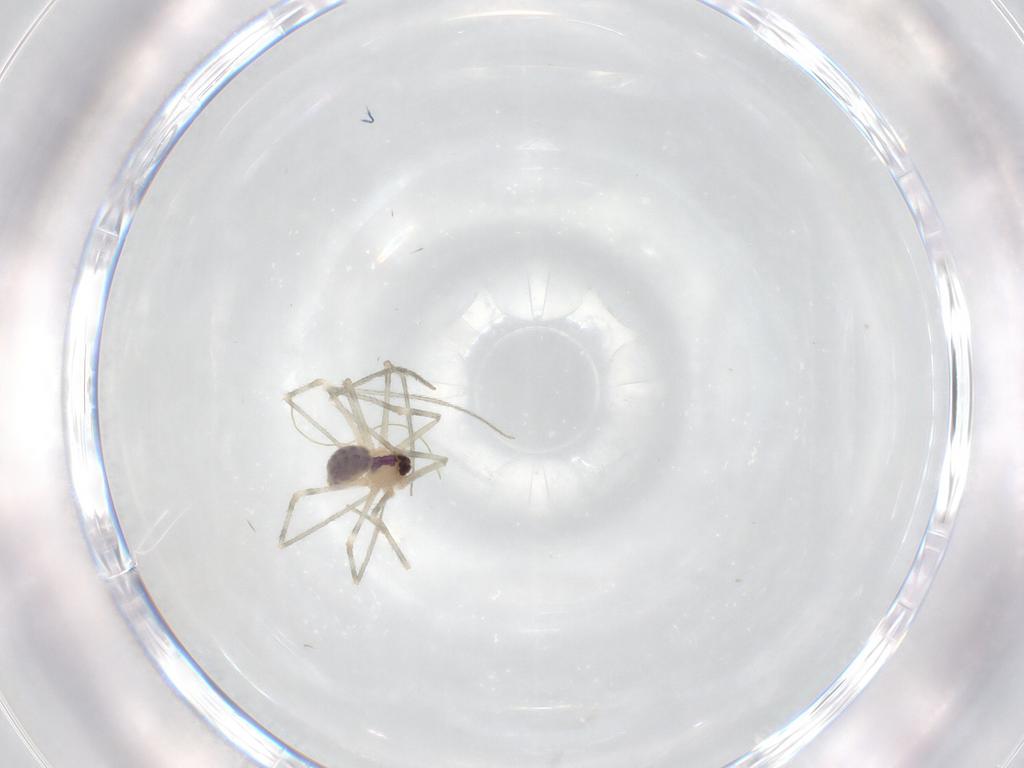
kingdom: Animalia
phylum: Arthropoda
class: Arachnida
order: Araneae
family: Pholcidae
